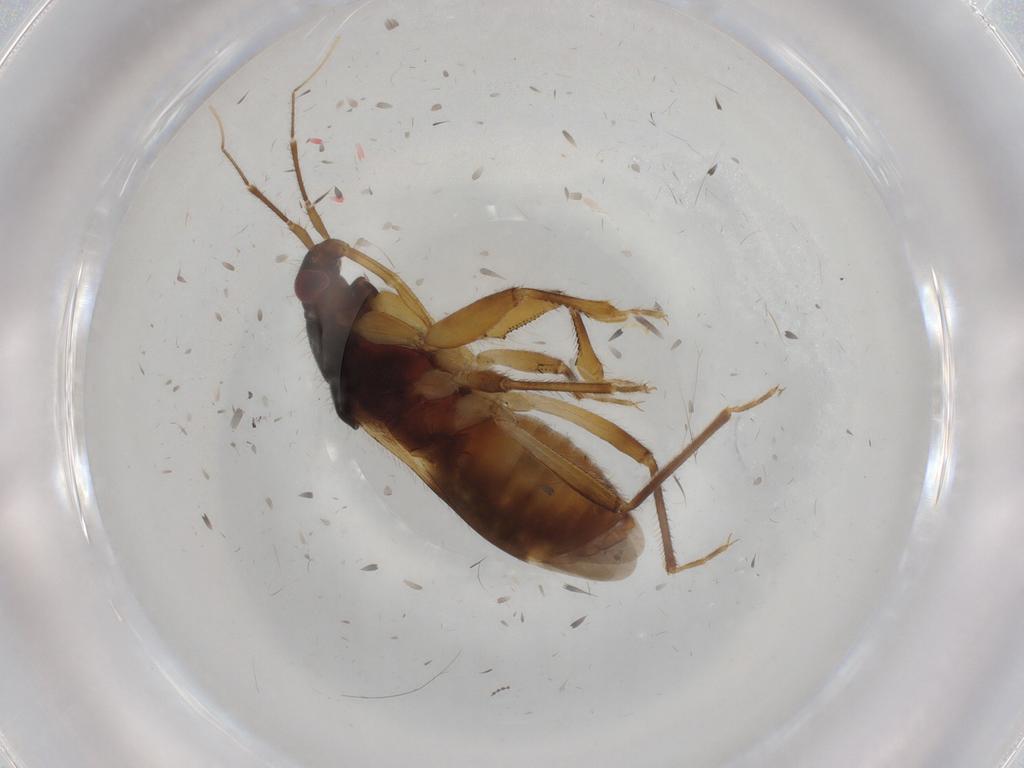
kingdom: Animalia
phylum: Arthropoda
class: Insecta
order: Hemiptera
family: Nabidae
